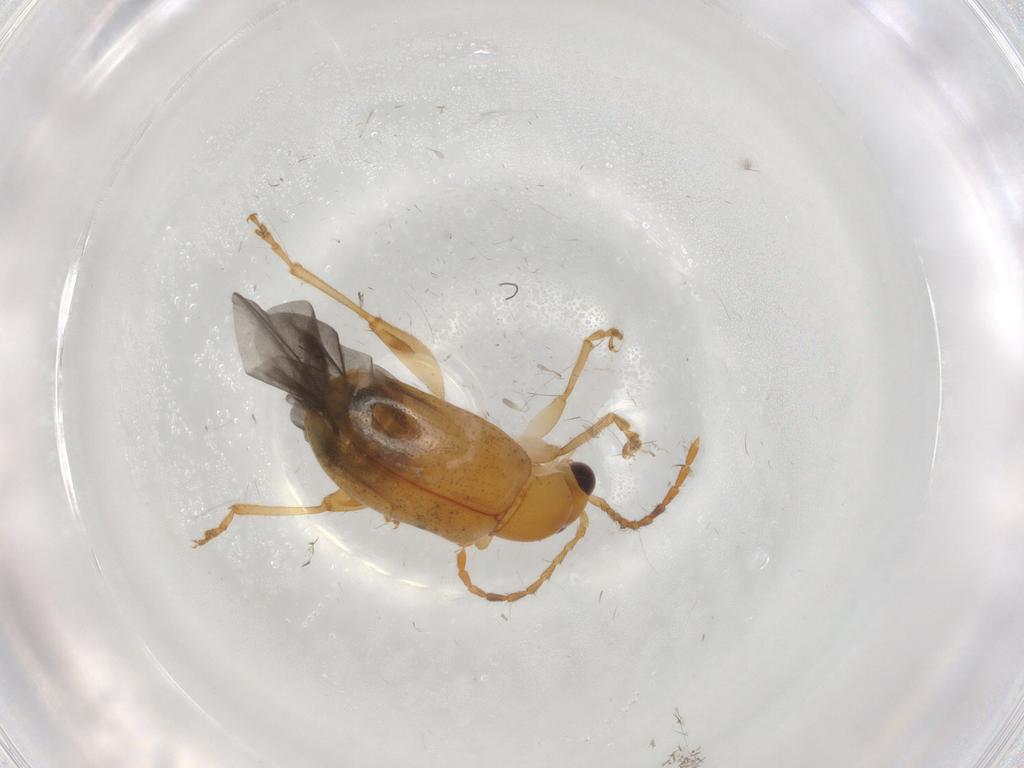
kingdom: Animalia
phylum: Arthropoda
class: Insecta
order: Coleoptera
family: Chrysomelidae
